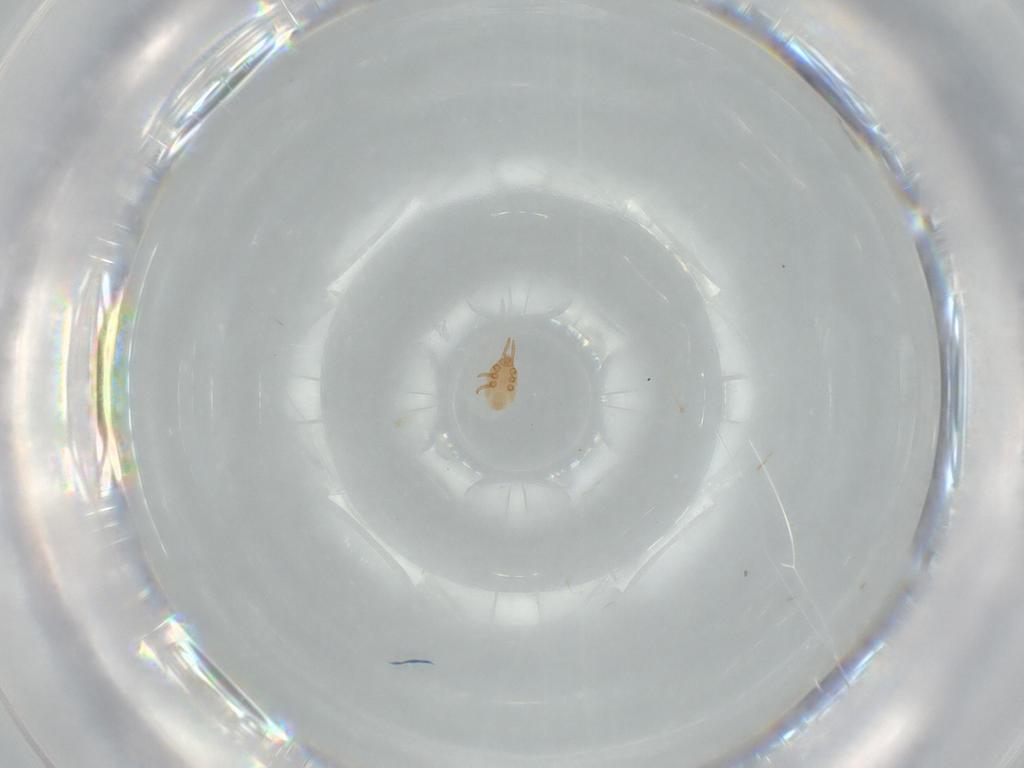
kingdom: Animalia
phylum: Arthropoda
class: Arachnida
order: Mesostigmata
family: Dinychidae
